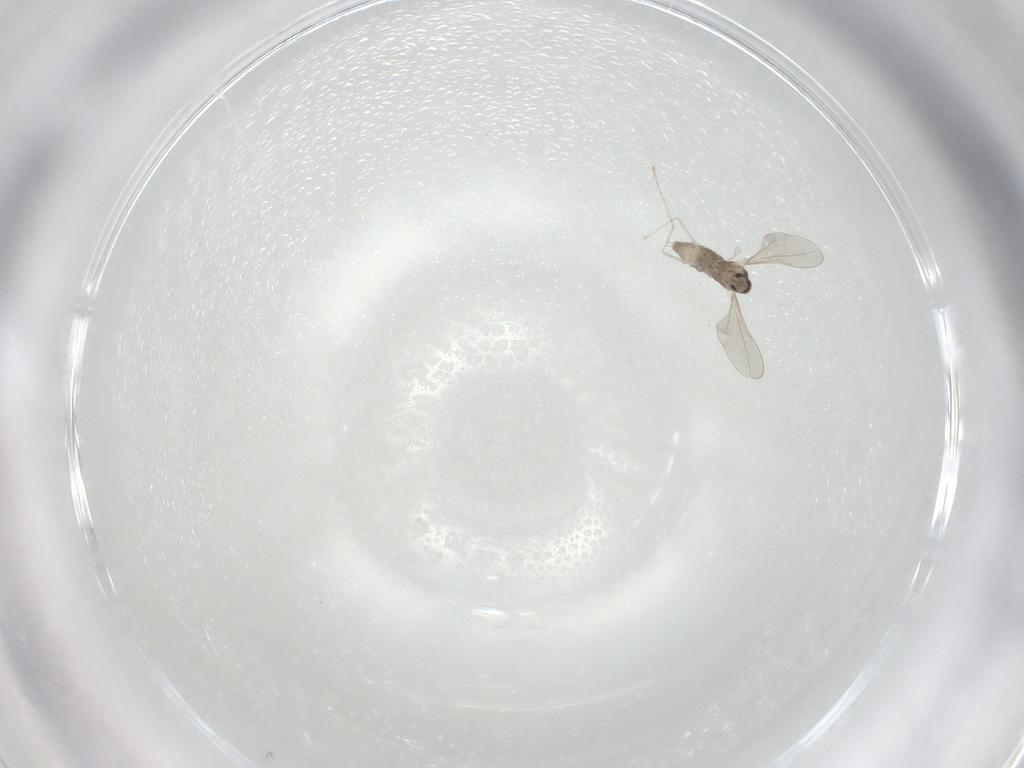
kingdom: Animalia
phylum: Arthropoda
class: Insecta
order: Diptera
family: Cecidomyiidae
